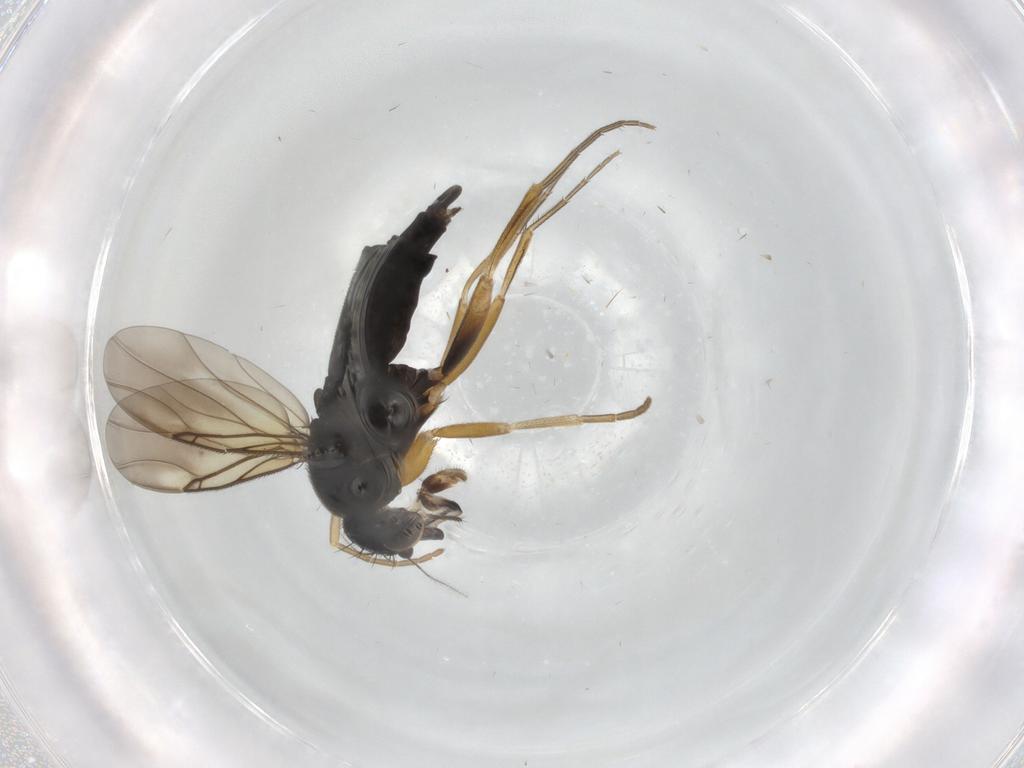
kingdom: Animalia
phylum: Arthropoda
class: Insecta
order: Diptera
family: Phoridae
